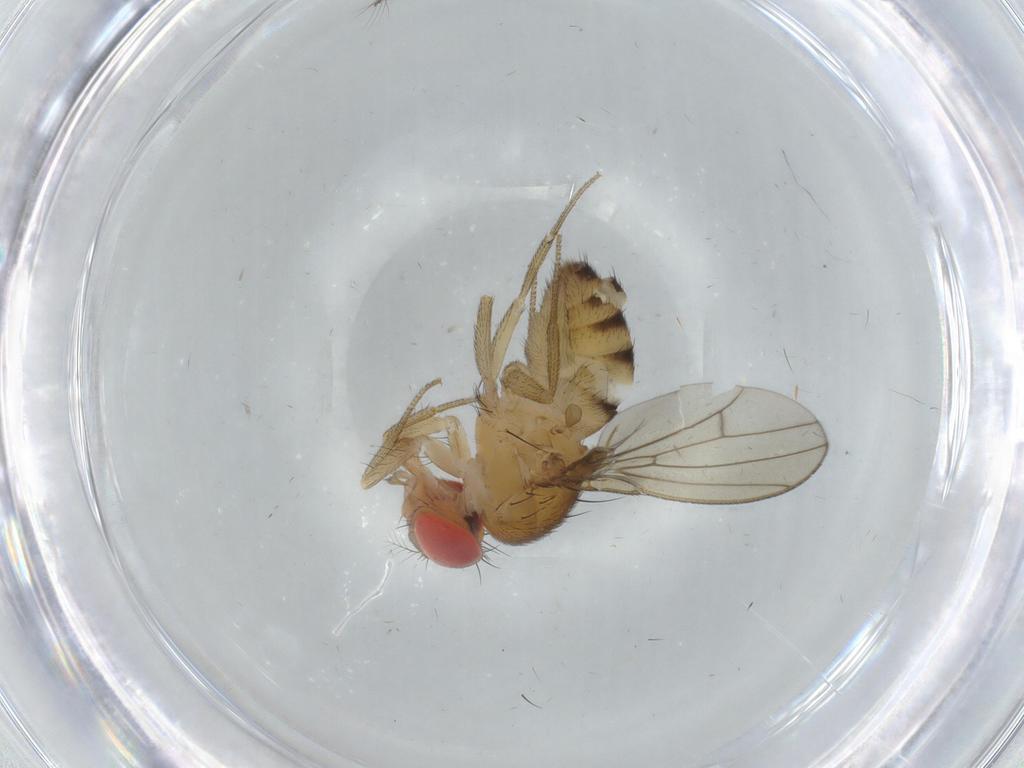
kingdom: Animalia
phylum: Arthropoda
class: Insecta
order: Diptera
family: Drosophilidae
